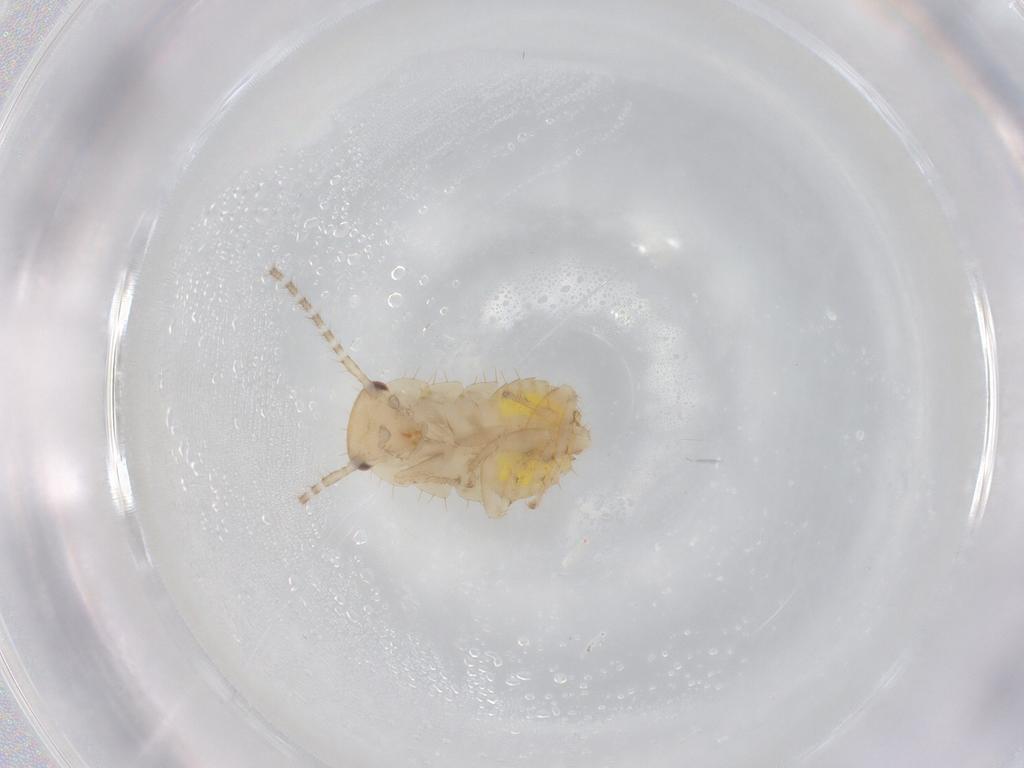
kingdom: Animalia
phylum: Arthropoda
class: Insecta
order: Blattodea
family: Ectobiidae
